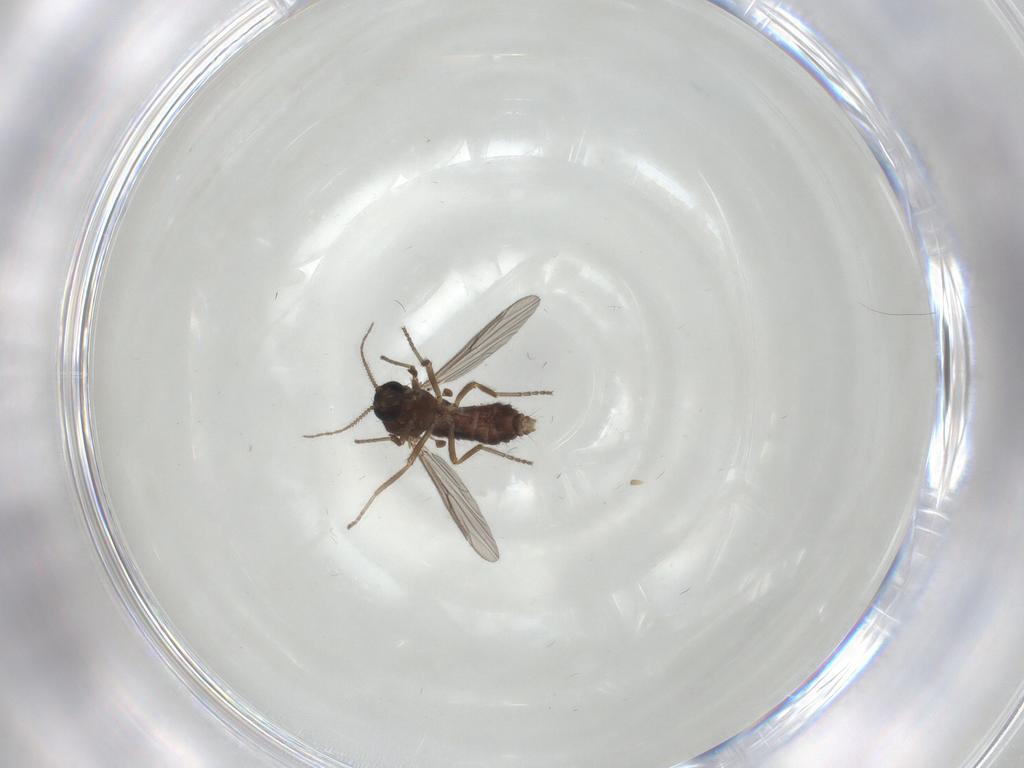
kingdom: Animalia
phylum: Arthropoda
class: Insecta
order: Diptera
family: Ceratopogonidae
